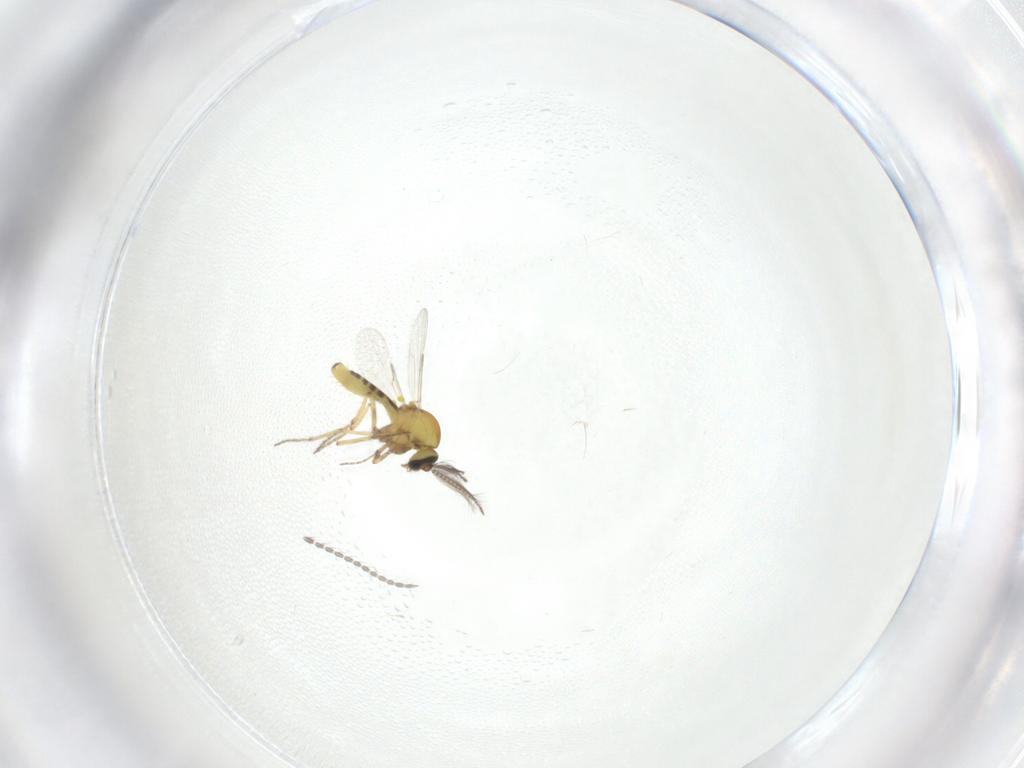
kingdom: Animalia
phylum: Arthropoda
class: Insecta
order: Diptera
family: Limoniidae
